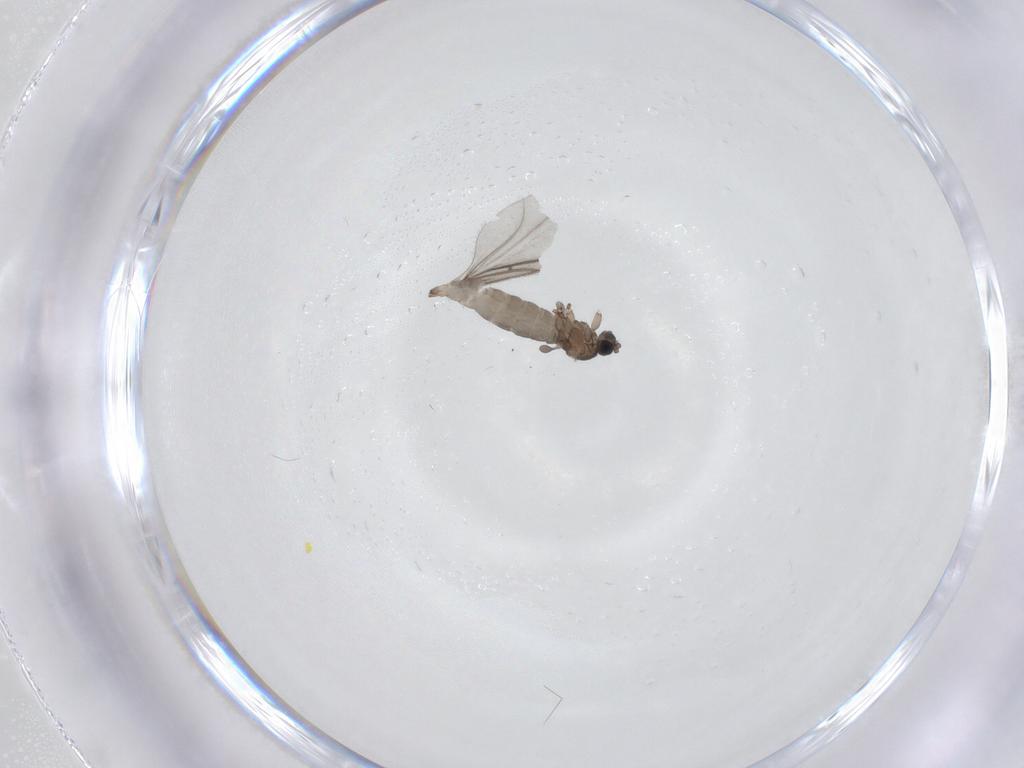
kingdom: Animalia
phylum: Arthropoda
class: Insecta
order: Diptera
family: Sciaridae
